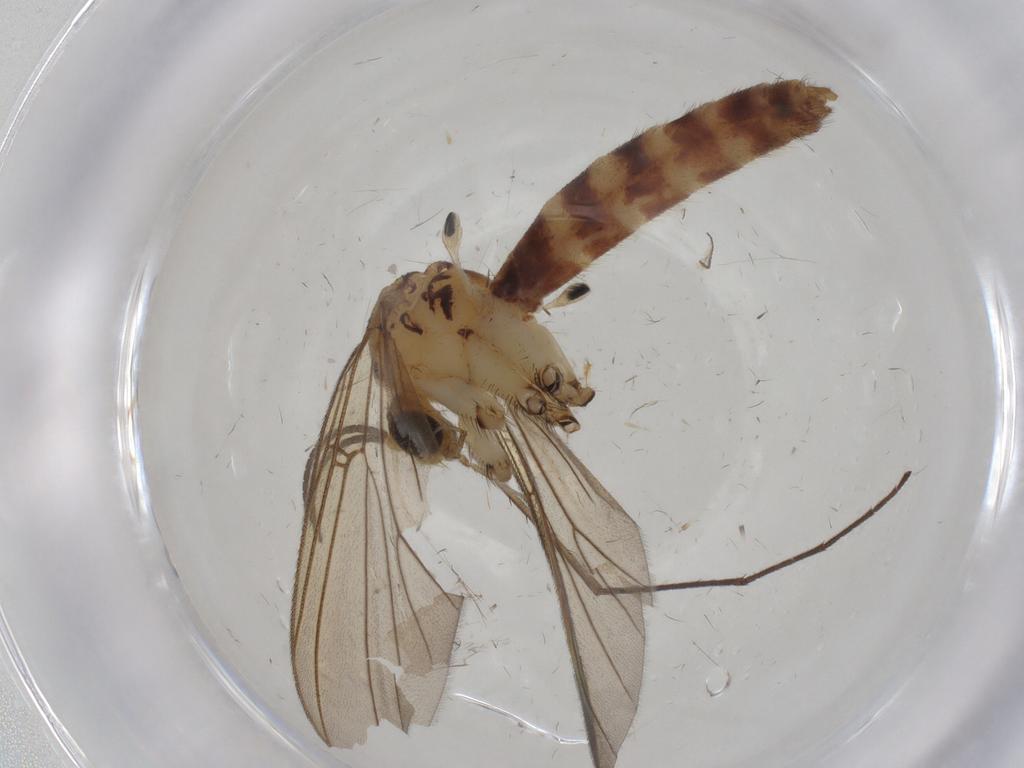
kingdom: Animalia
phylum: Arthropoda
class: Insecta
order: Diptera
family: Mycetophilidae
